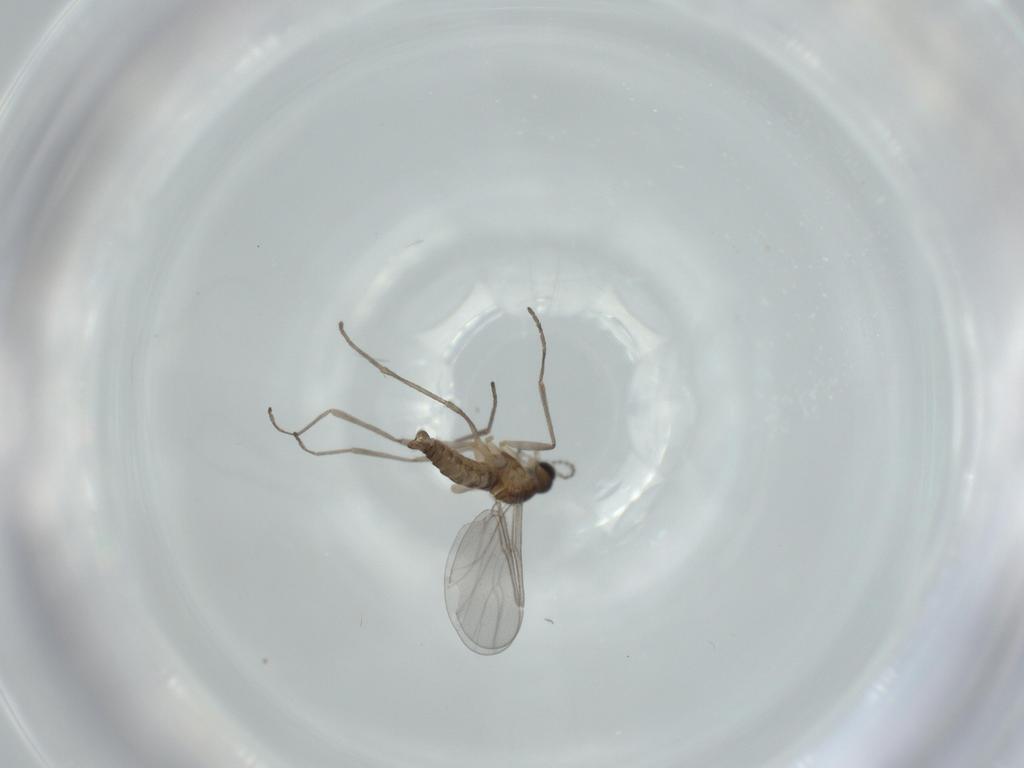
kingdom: Animalia
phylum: Arthropoda
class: Insecta
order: Diptera
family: Cecidomyiidae
